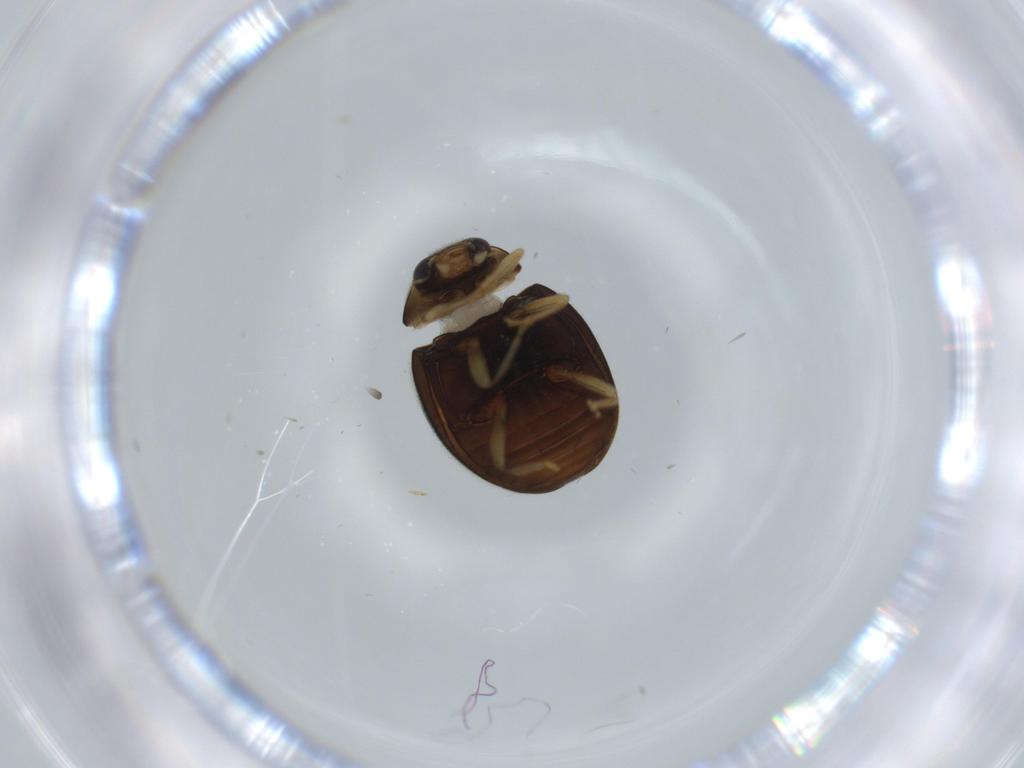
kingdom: Animalia
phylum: Arthropoda
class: Insecta
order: Coleoptera
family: Coccinellidae
